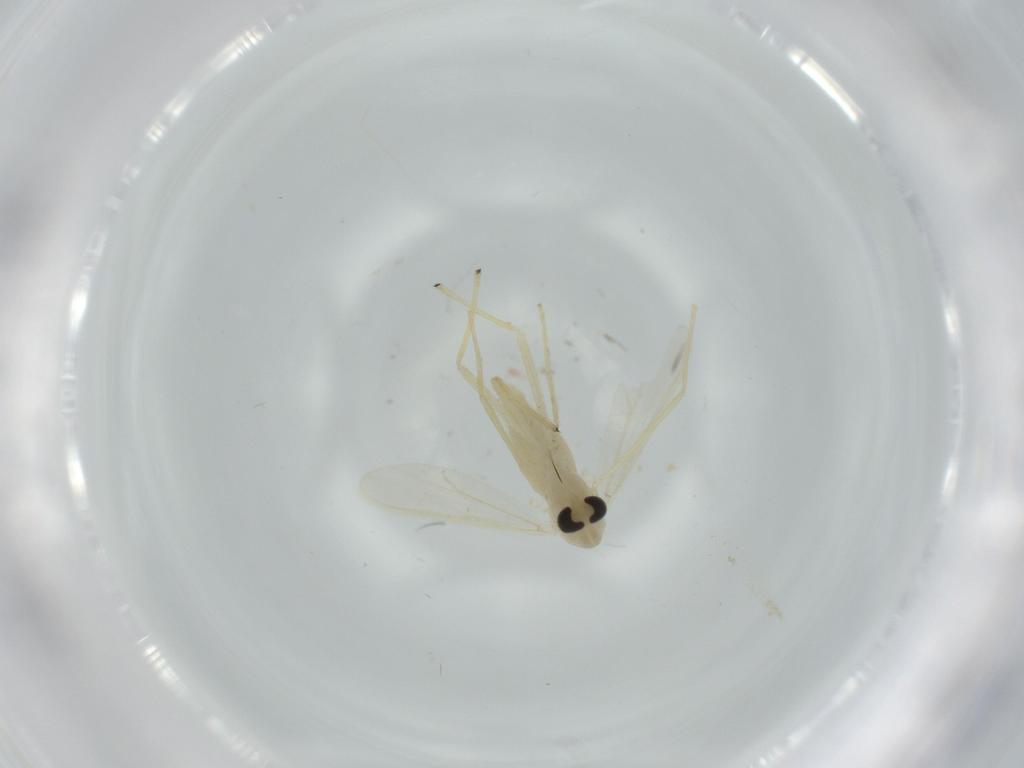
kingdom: Animalia
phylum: Arthropoda
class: Insecta
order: Diptera
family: Chironomidae
